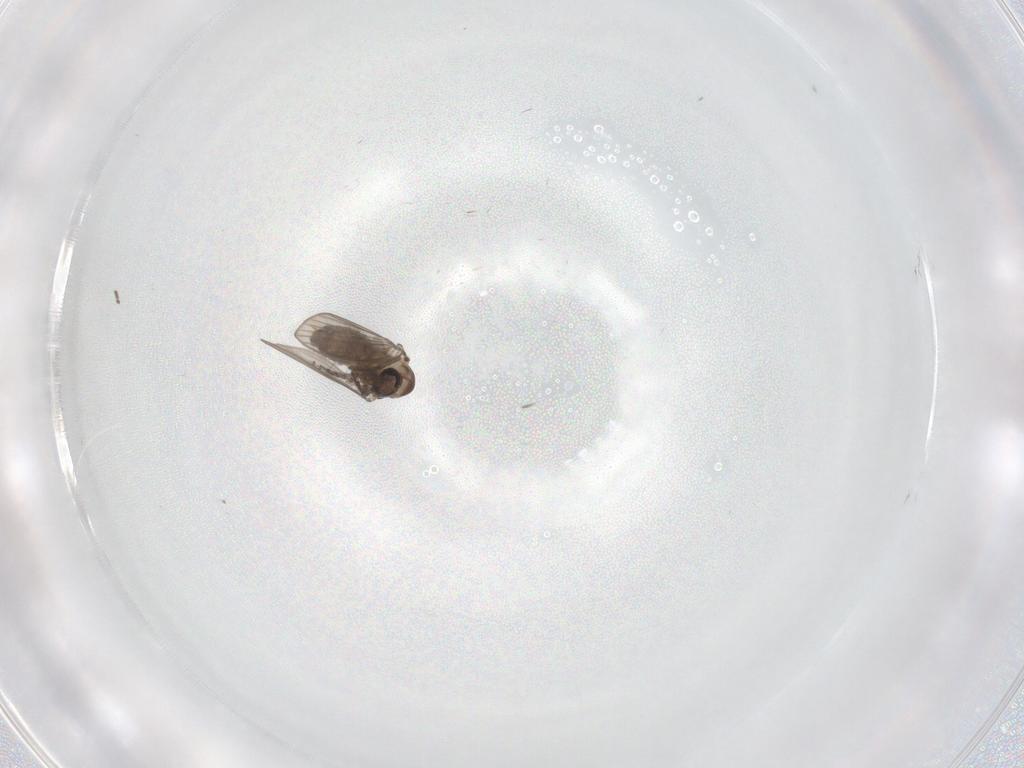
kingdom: Animalia
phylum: Arthropoda
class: Insecta
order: Diptera
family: Psychodidae
